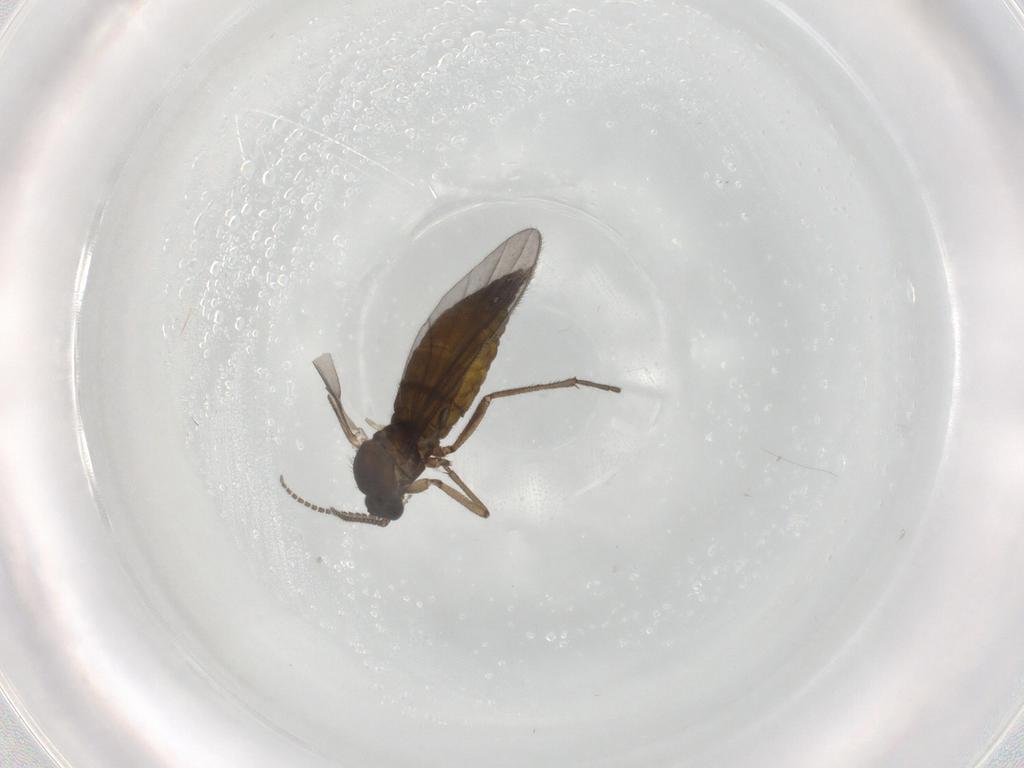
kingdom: Animalia
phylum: Arthropoda
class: Insecta
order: Diptera
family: Sciaridae
